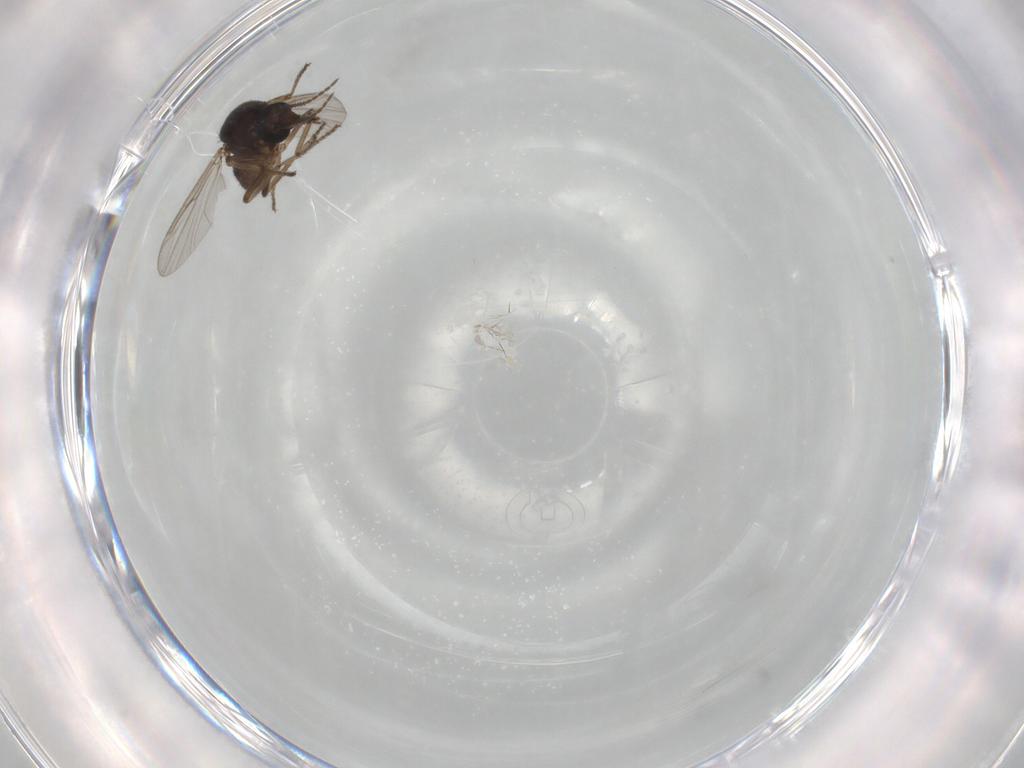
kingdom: Animalia
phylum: Arthropoda
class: Insecta
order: Diptera
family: Ceratopogonidae
